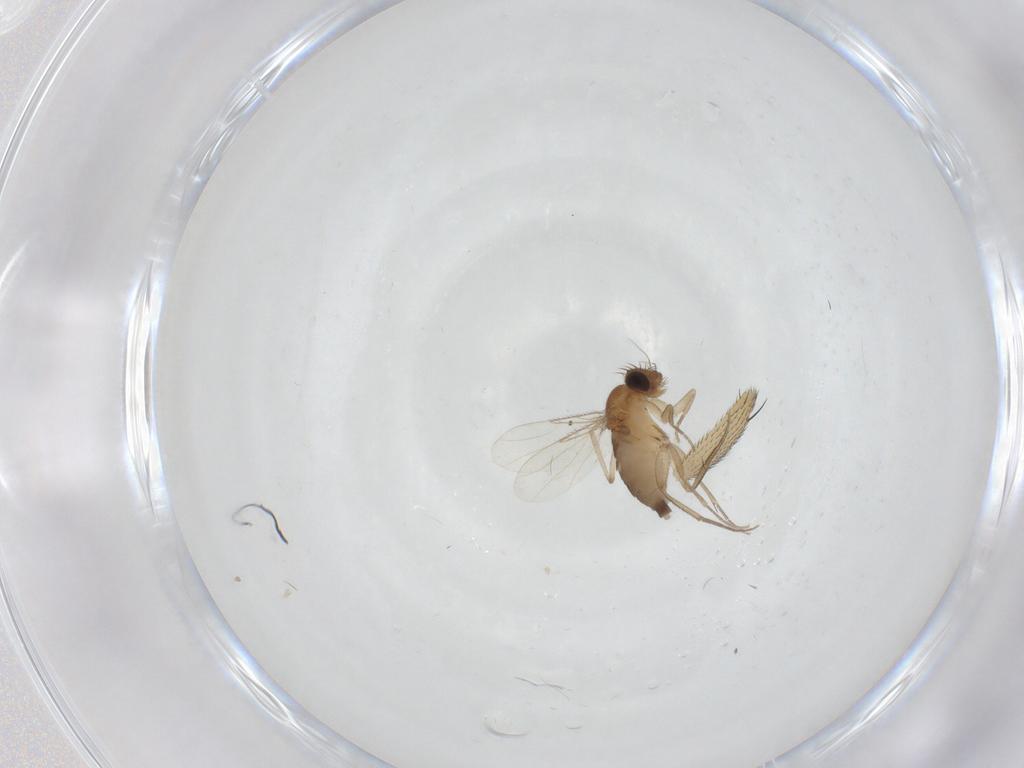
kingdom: Animalia
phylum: Arthropoda
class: Insecta
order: Diptera
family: Phoridae
